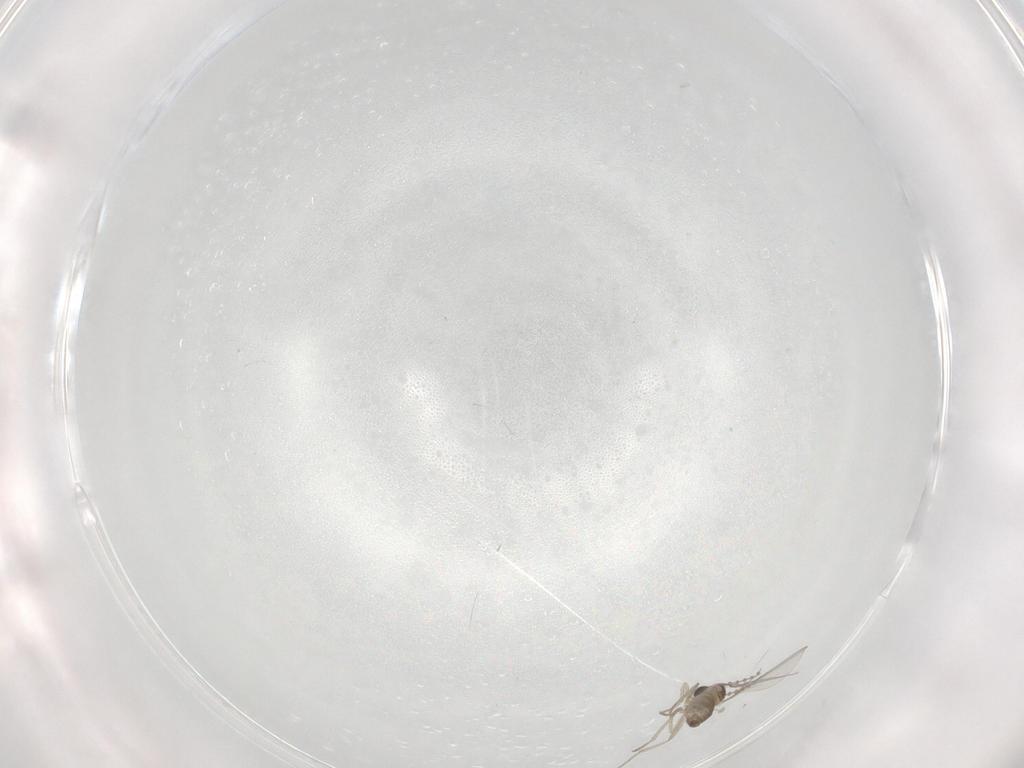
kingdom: Animalia
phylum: Arthropoda
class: Insecta
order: Diptera
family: Cecidomyiidae
